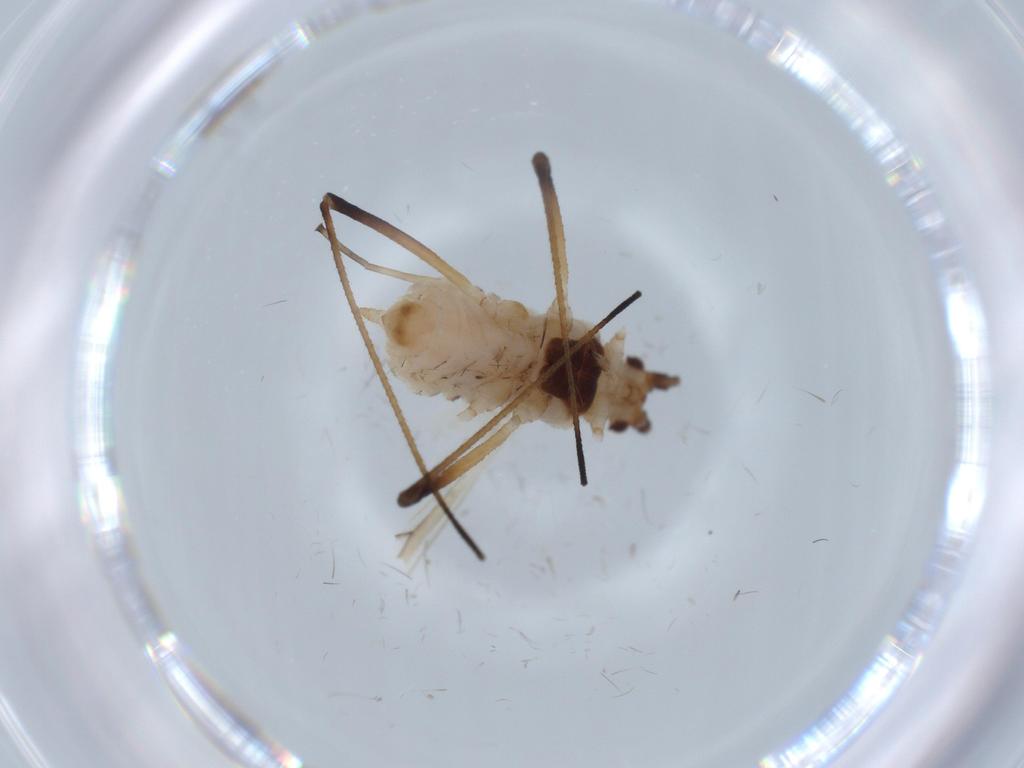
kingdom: Animalia
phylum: Arthropoda
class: Insecta
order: Hemiptera
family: Aphididae
